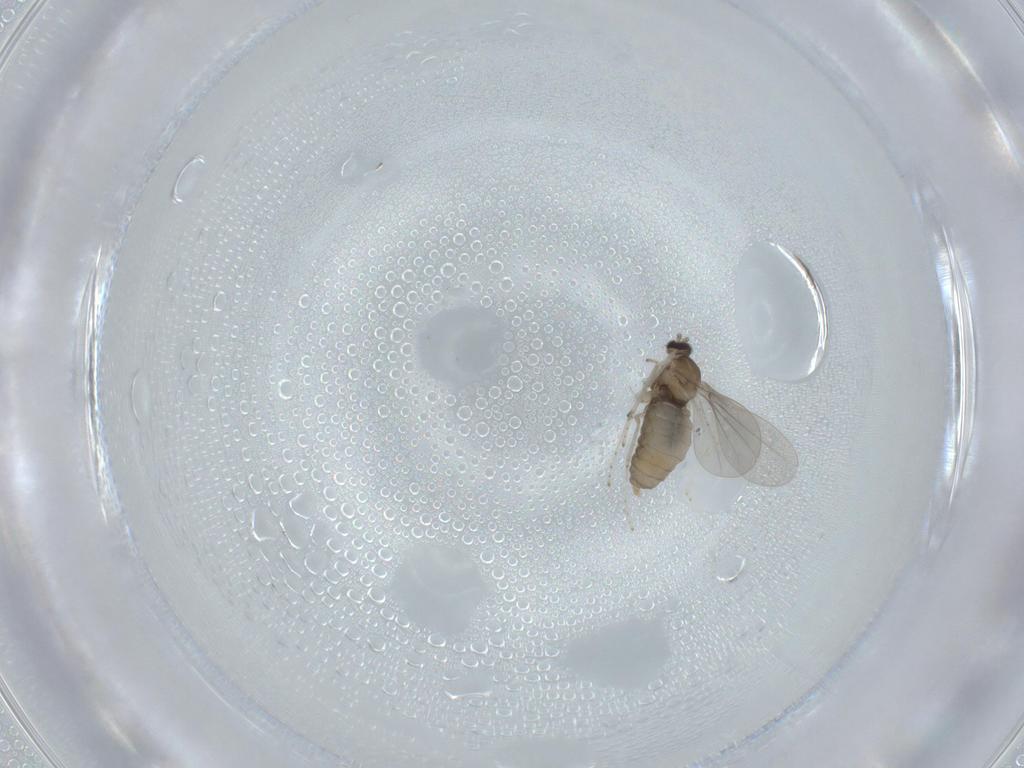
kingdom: Animalia
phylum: Arthropoda
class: Insecta
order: Diptera
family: Cecidomyiidae
